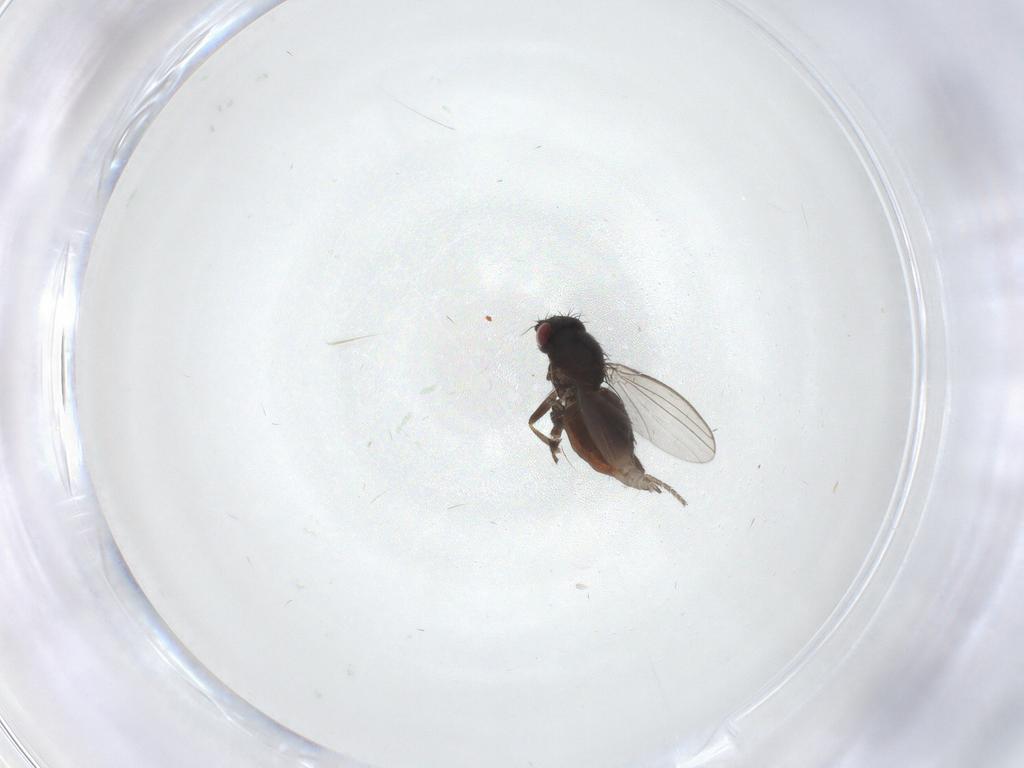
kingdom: Animalia
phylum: Arthropoda
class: Insecta
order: Diptera
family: Milichiidae
